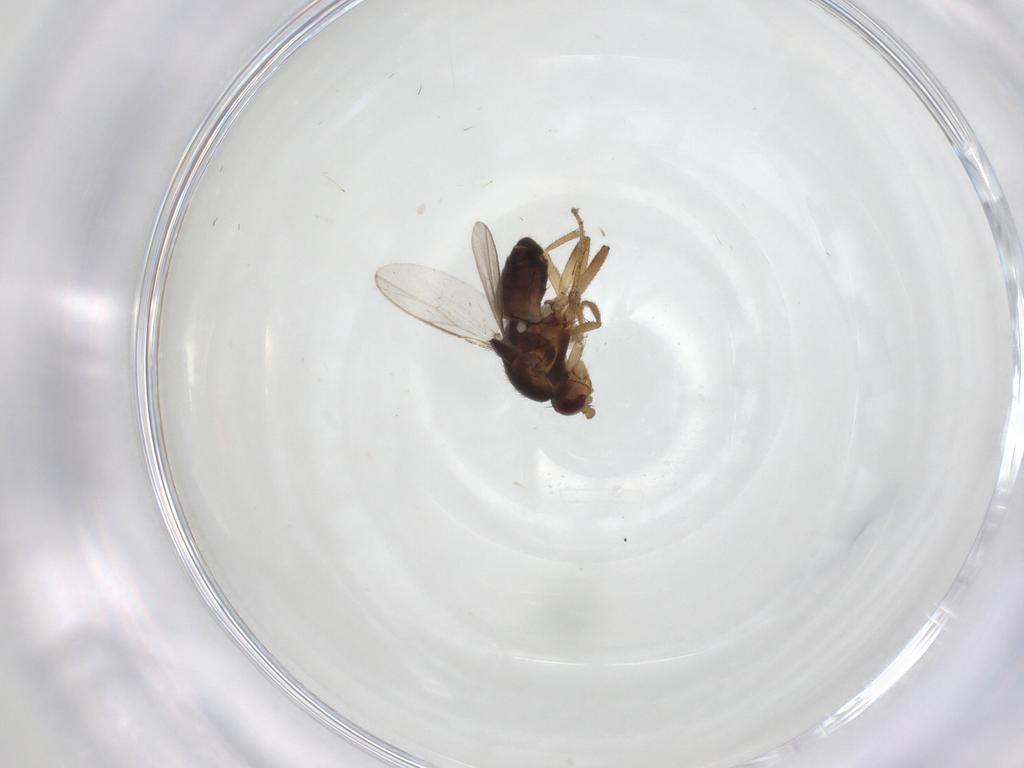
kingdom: Animalia
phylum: Arthropoda
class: Insecta
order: Diptera
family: Sphaeroceridae
